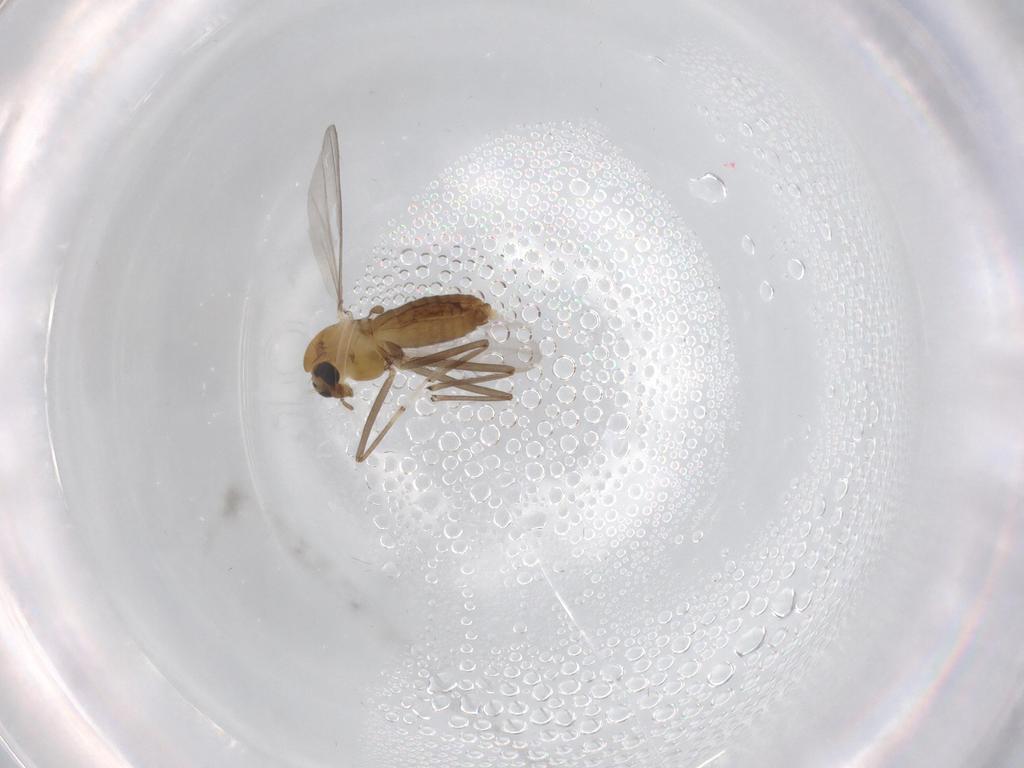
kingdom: Animalia
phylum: Arthropoda
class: Insecta
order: Diptera
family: Chironomidae
